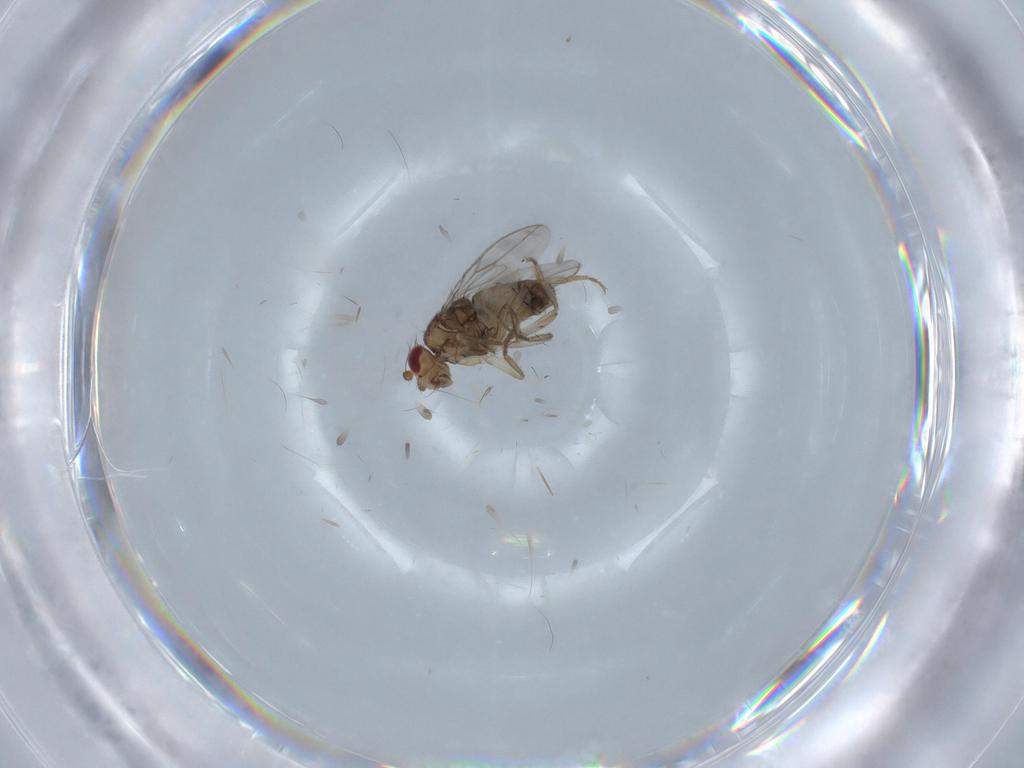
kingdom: Animalia
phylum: Arthropoda
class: Insecta
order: Diptera
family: Sphaeroceridae
